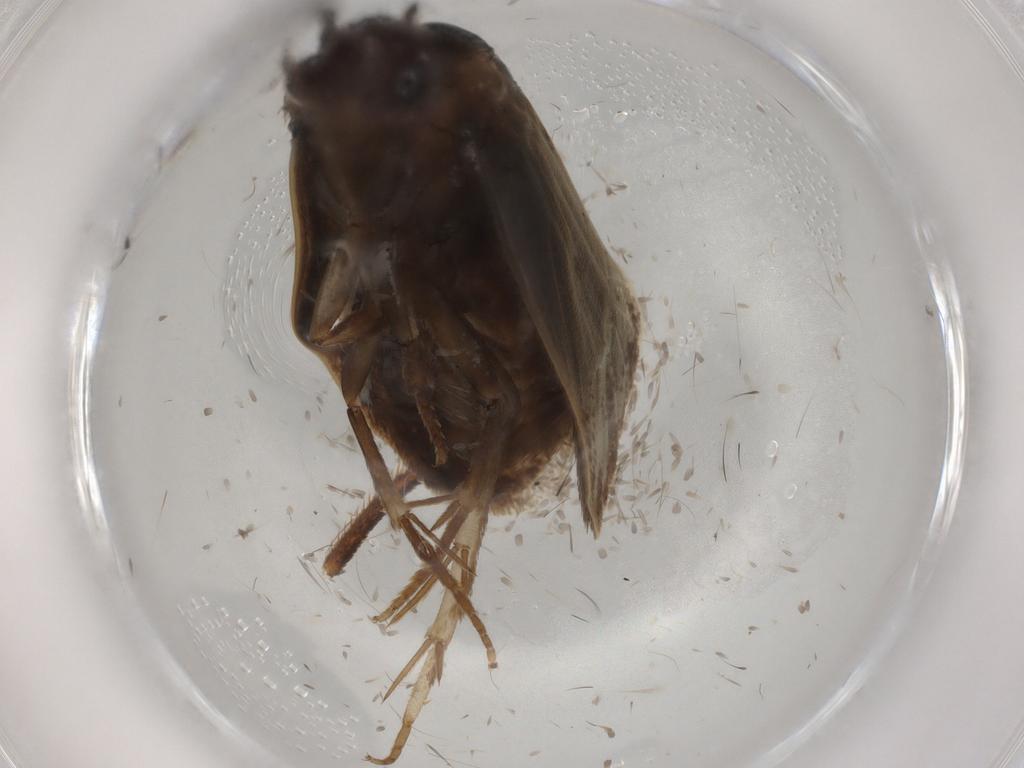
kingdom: Animalia
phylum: Arthropoda
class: Insecta
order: Lepidoptera
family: Tineidae
